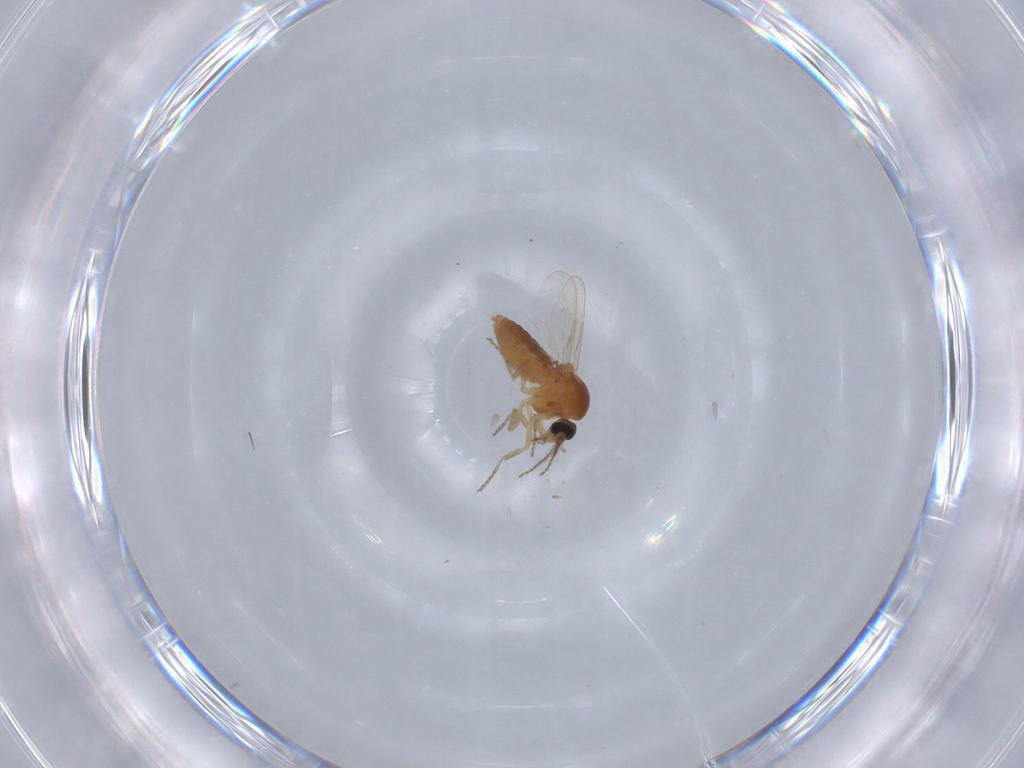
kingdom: Animalia
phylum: Arthropoda
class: Insecta
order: Diptera
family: Ceratopogonidae
